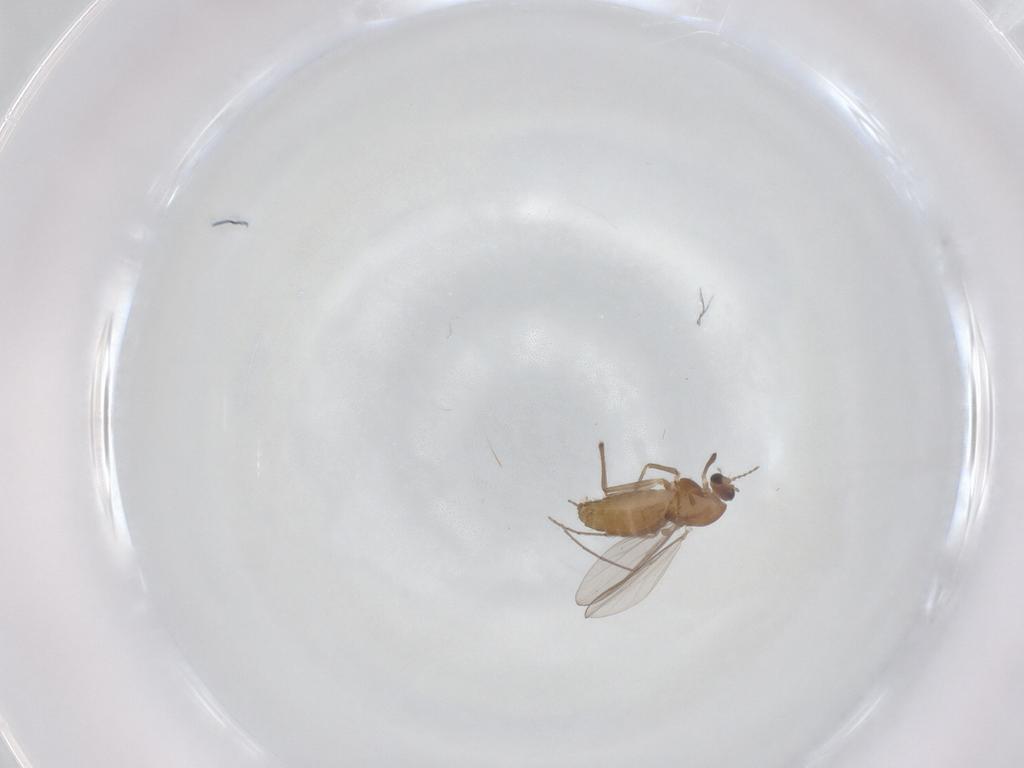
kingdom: Animalia
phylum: Arthropoda
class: Insecta
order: Diptera
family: Chironomidae
